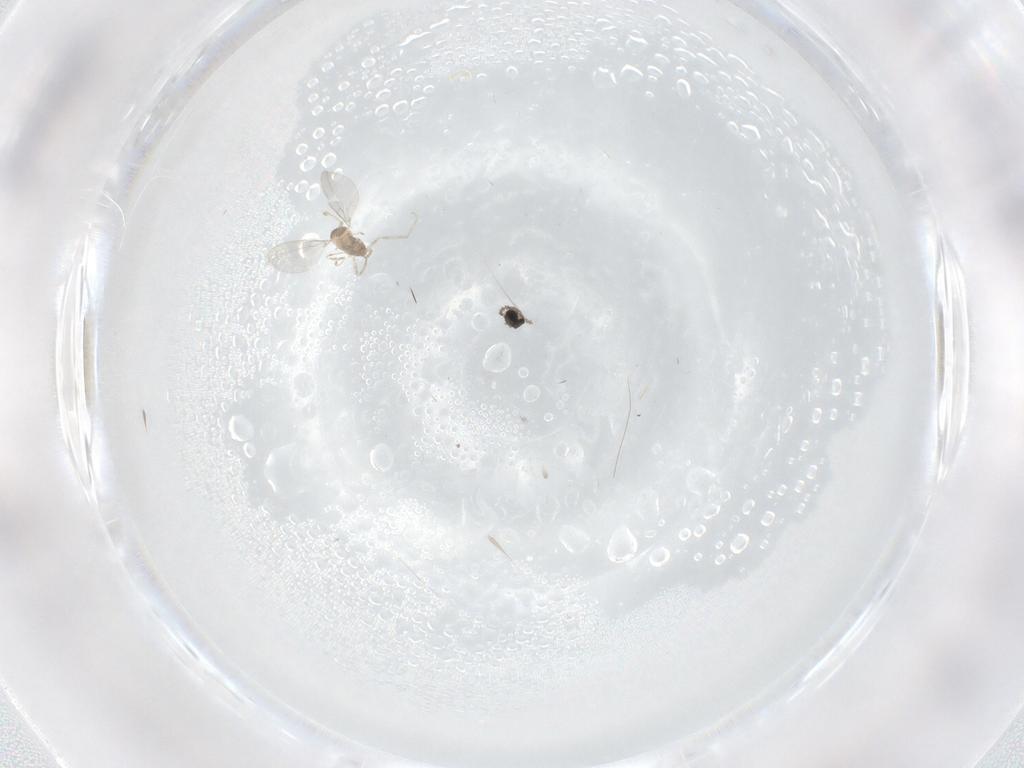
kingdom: Animalia
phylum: Arthropoda
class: Insecta
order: Diptera
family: Cecidomyiidae
